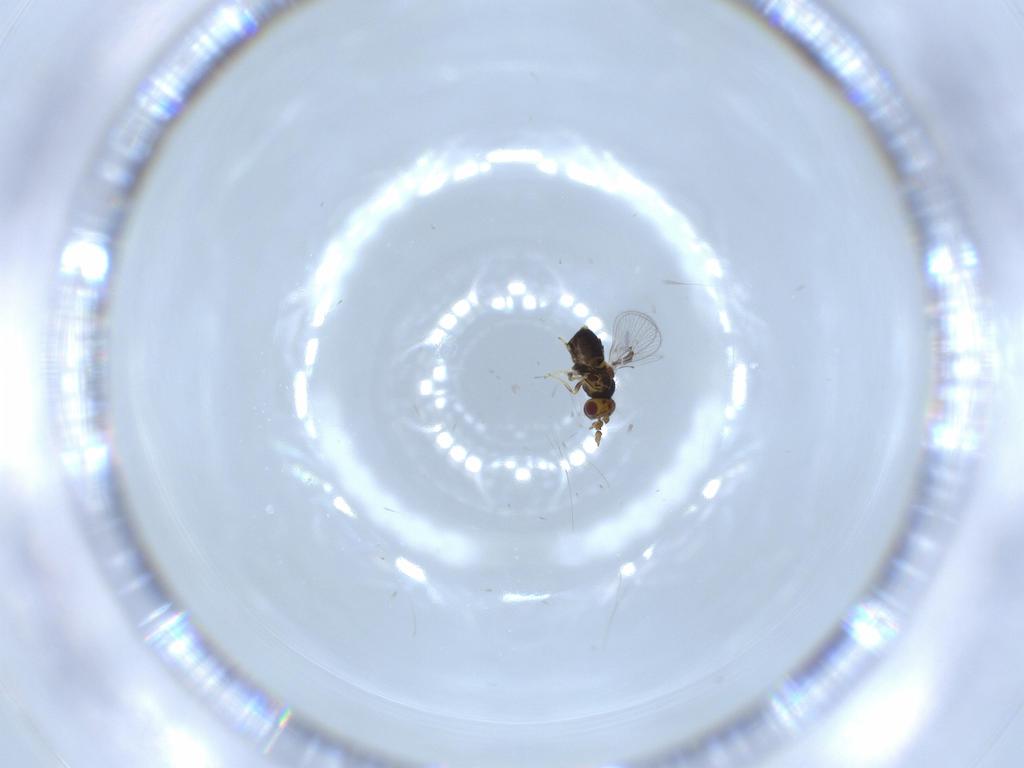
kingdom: Animalia
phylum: Arthropoda
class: Insecta
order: Hymenoptera
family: Trichogrammatidae
